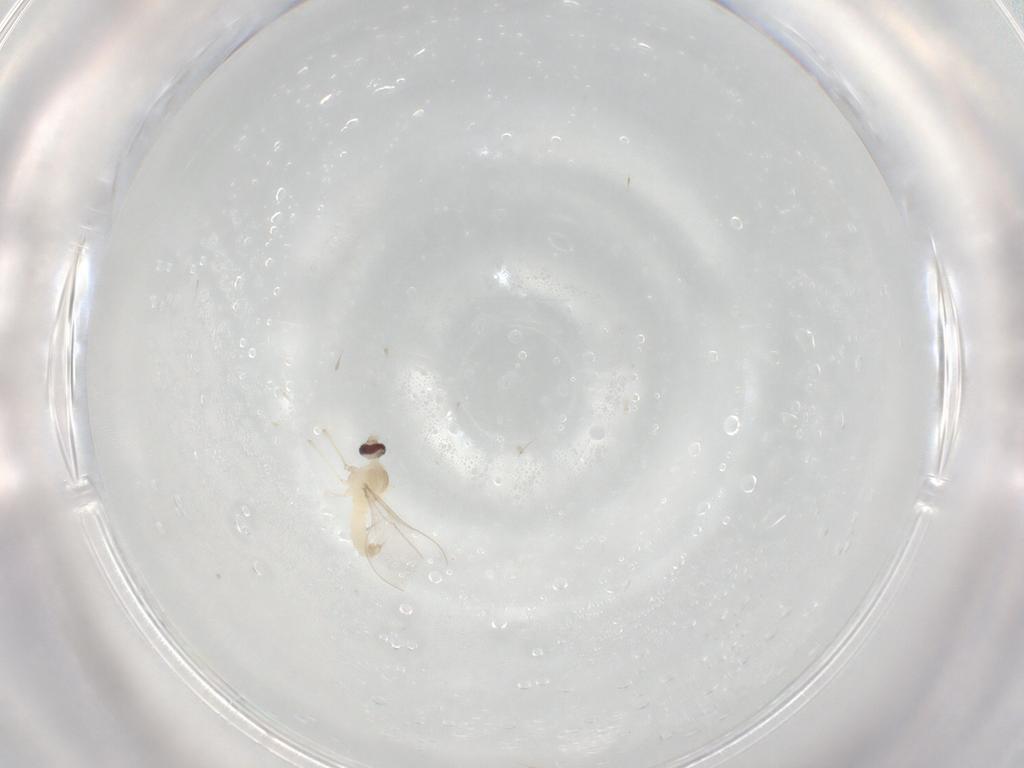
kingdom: Animalia
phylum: Arthropoda
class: Insecta
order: Diptera
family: Cecidomyiidae
